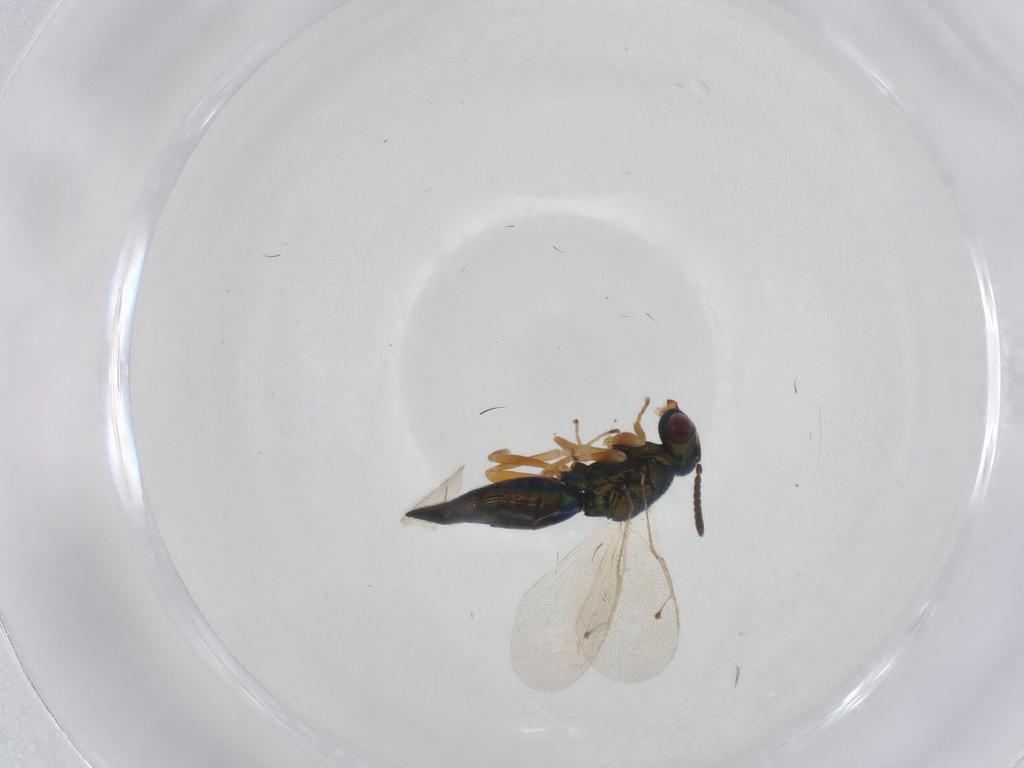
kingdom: Animalia
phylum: Arthropoda
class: Insecta
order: Hymenoptera
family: Pteromalidae
